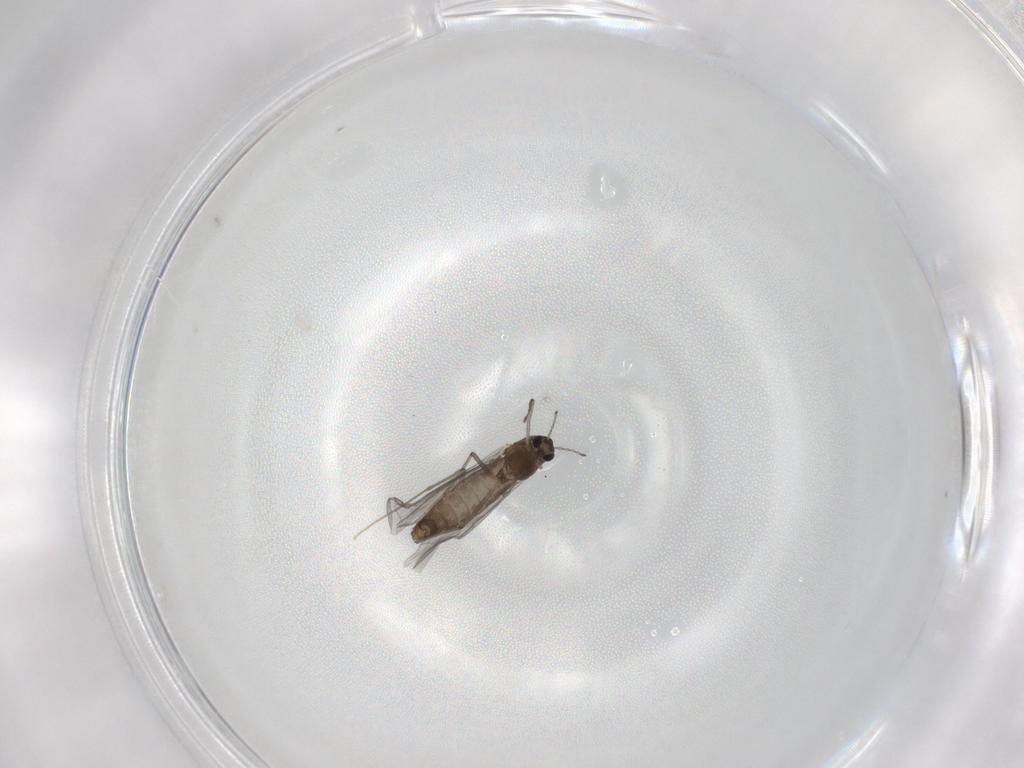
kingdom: Animalia
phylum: Arthropoda
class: Insecta
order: Diptera
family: Chironomidae
